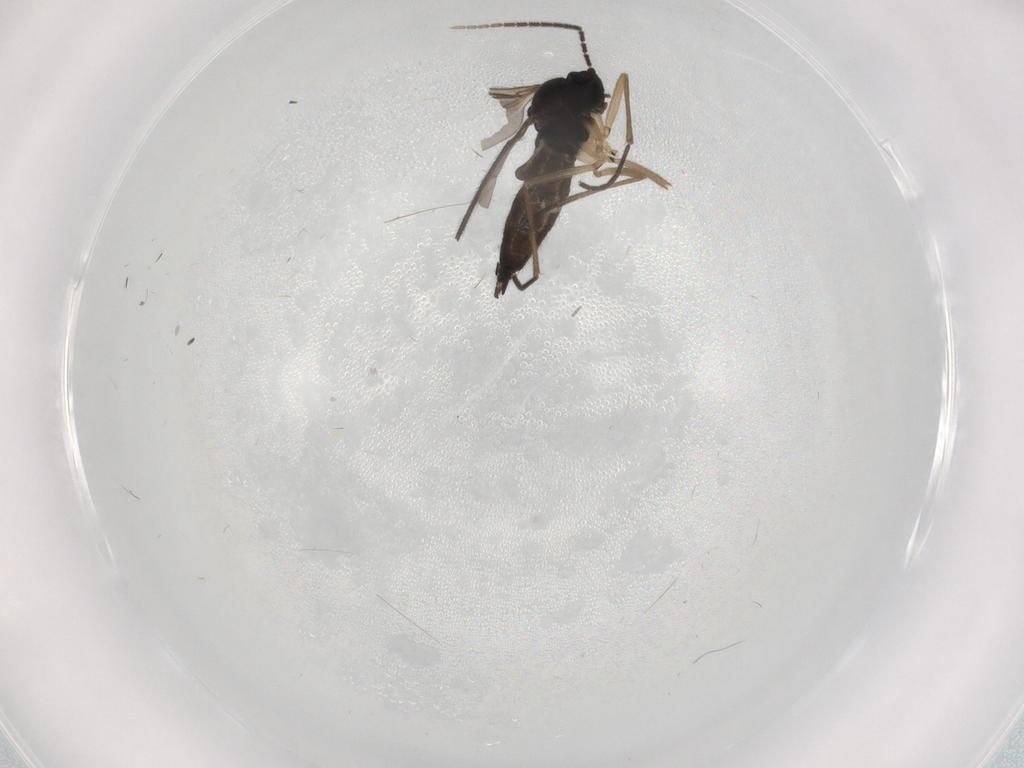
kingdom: Animalia
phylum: Arthropoda
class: Insecta
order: Diptera
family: Sciaridae
